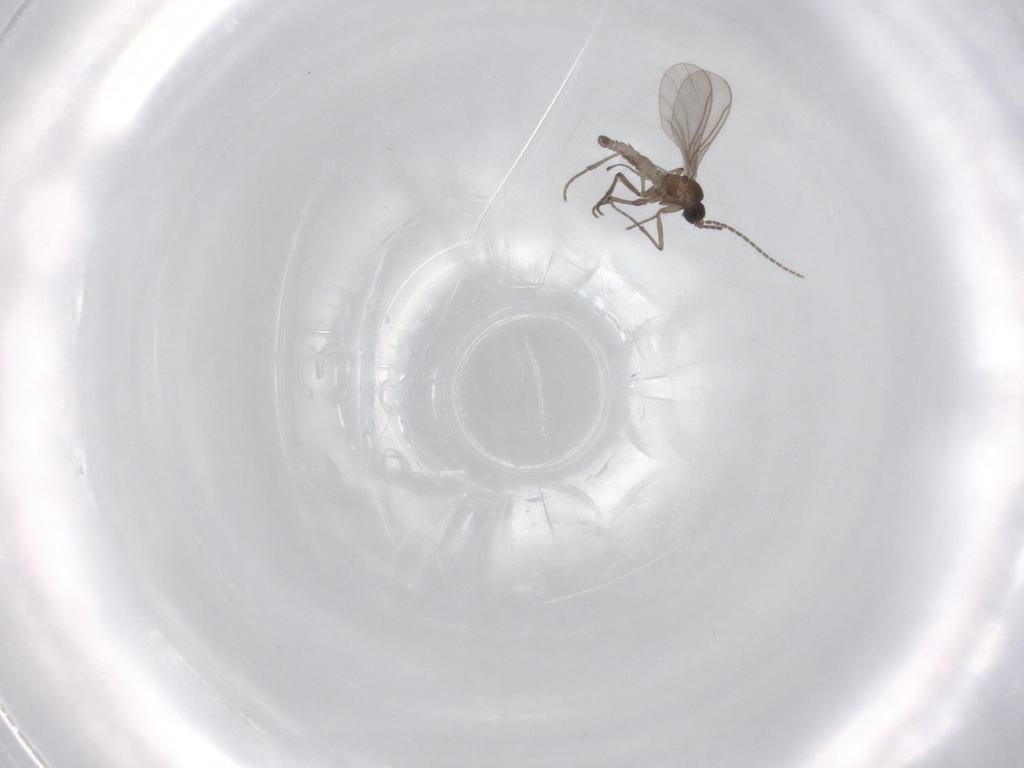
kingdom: Animalia
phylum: Arthropoda
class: Insecta
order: Diptera
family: Sciaridae
